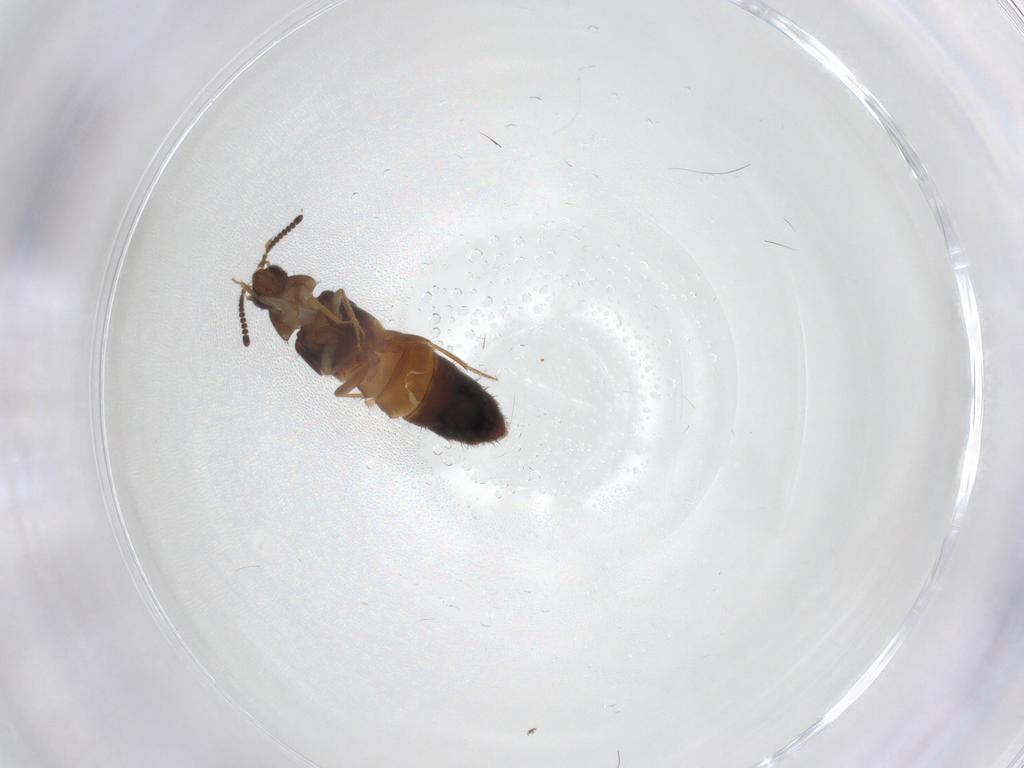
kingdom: Animalia
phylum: Arthropoda
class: Insecta
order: Coleoptera
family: Staphylinidae
